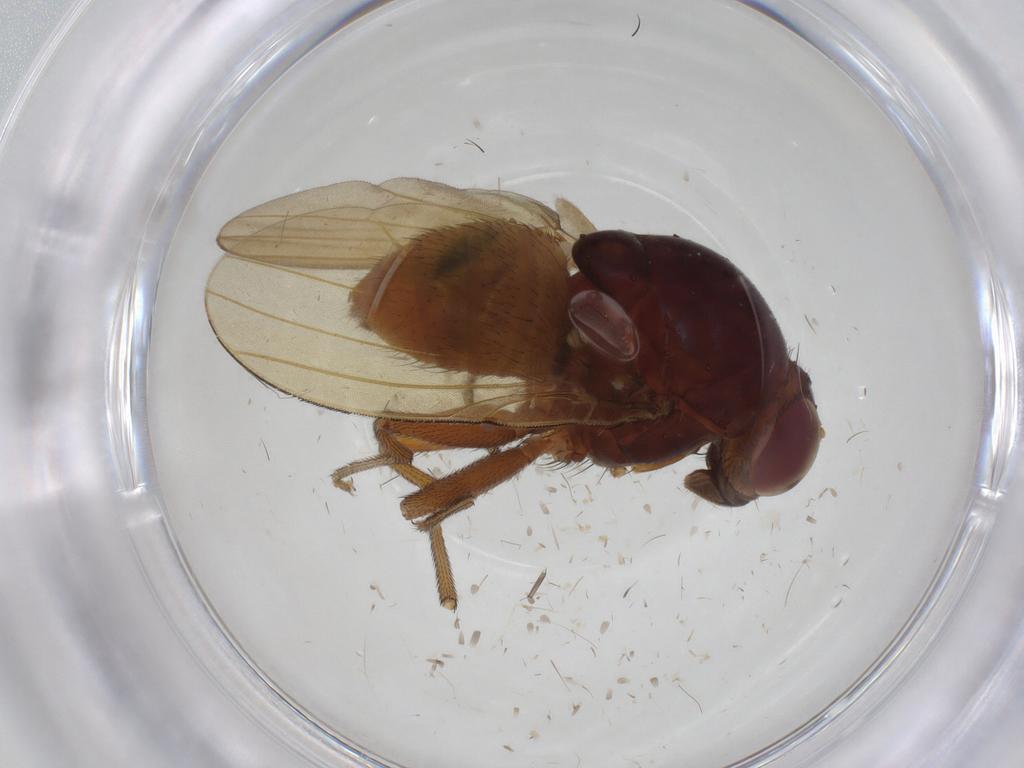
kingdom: Animalia
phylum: Arthropoda
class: Insecta
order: Diptera
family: Lauxaniidae
